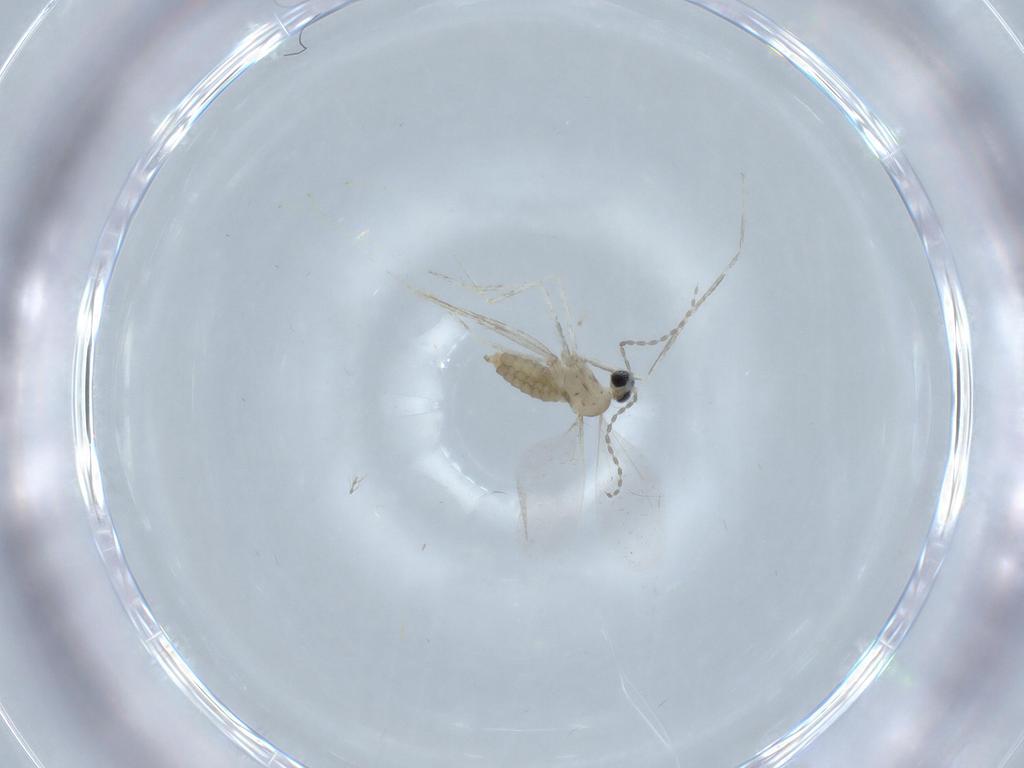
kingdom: Animalia
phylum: Arthropoda
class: Insecta
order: Diptera
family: Cecidomyiidae
